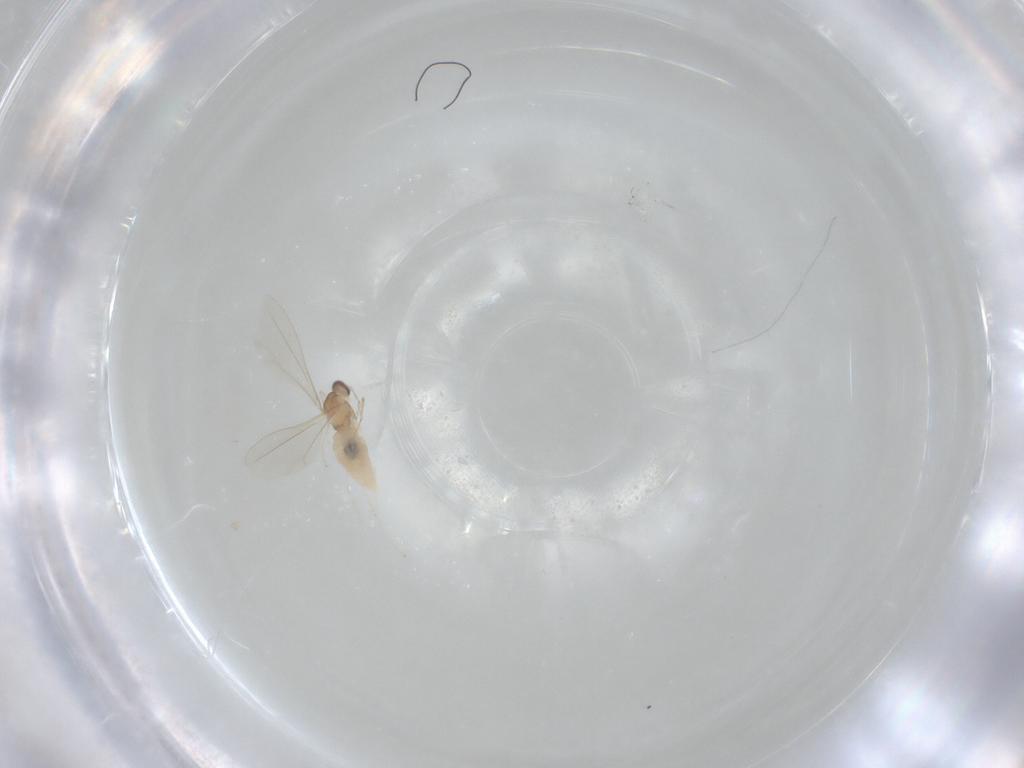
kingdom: Animalia
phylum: Arthropoda
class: Insecta
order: Diptera
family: Cecidomyiidae
